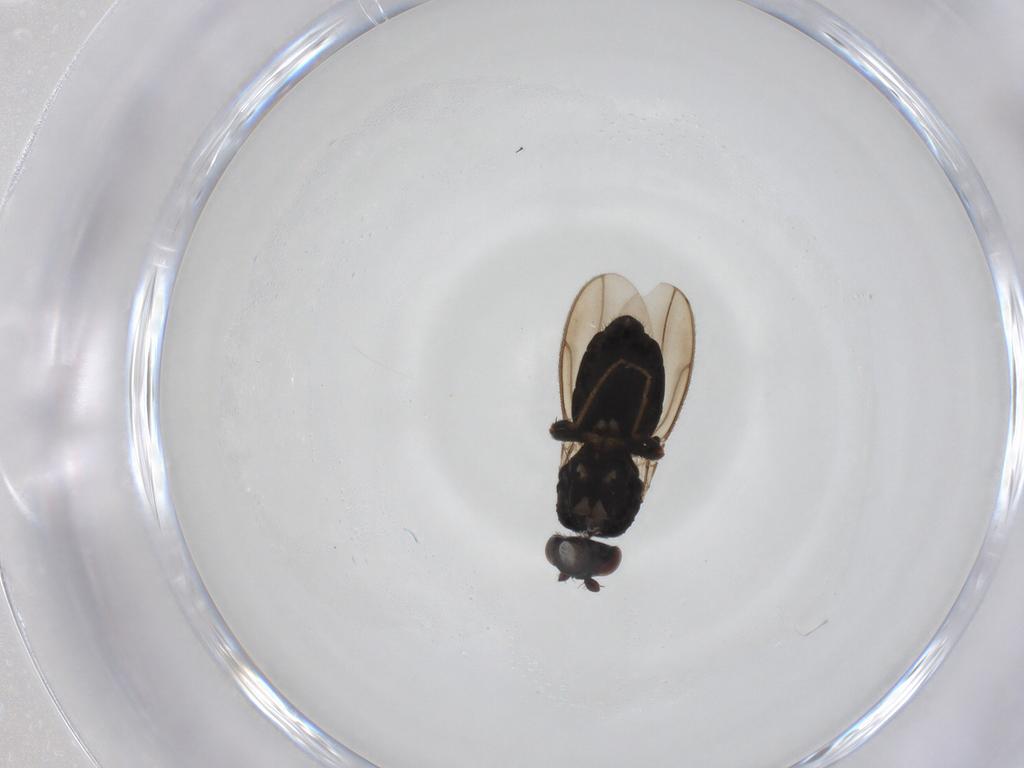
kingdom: Animalia
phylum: Arthropoda
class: Insecta
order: Diptera
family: Sphaeroceridae
